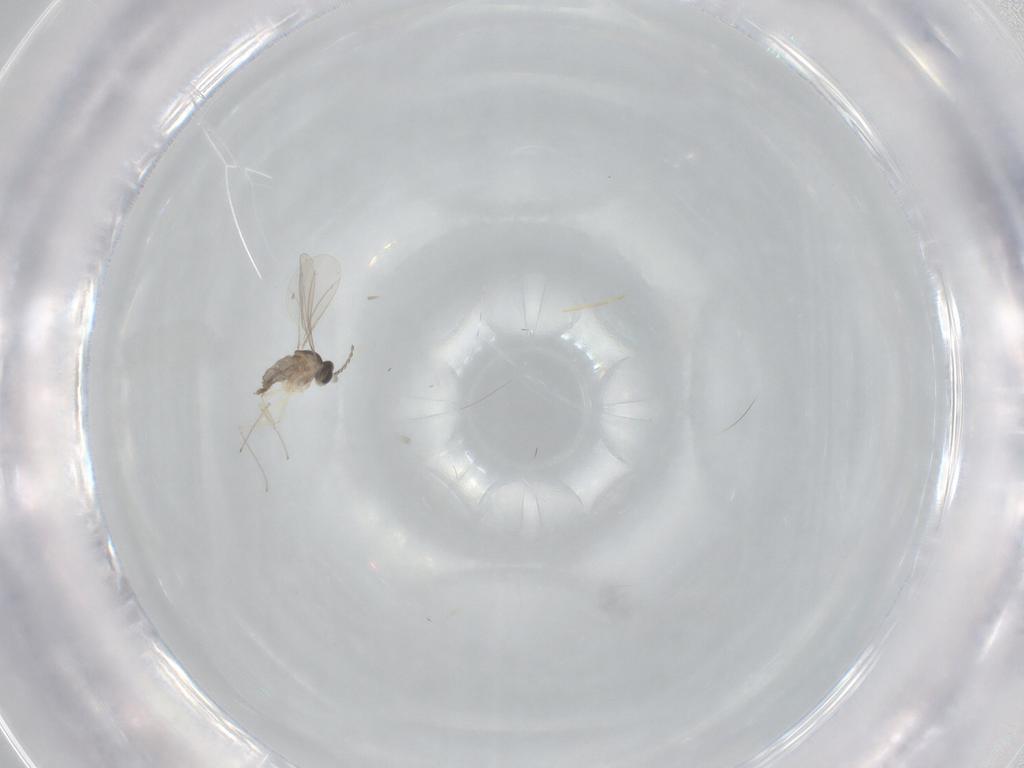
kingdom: Animalia
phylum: Arthropoda
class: Insecta
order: Diptera
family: Cecidomyiidae
